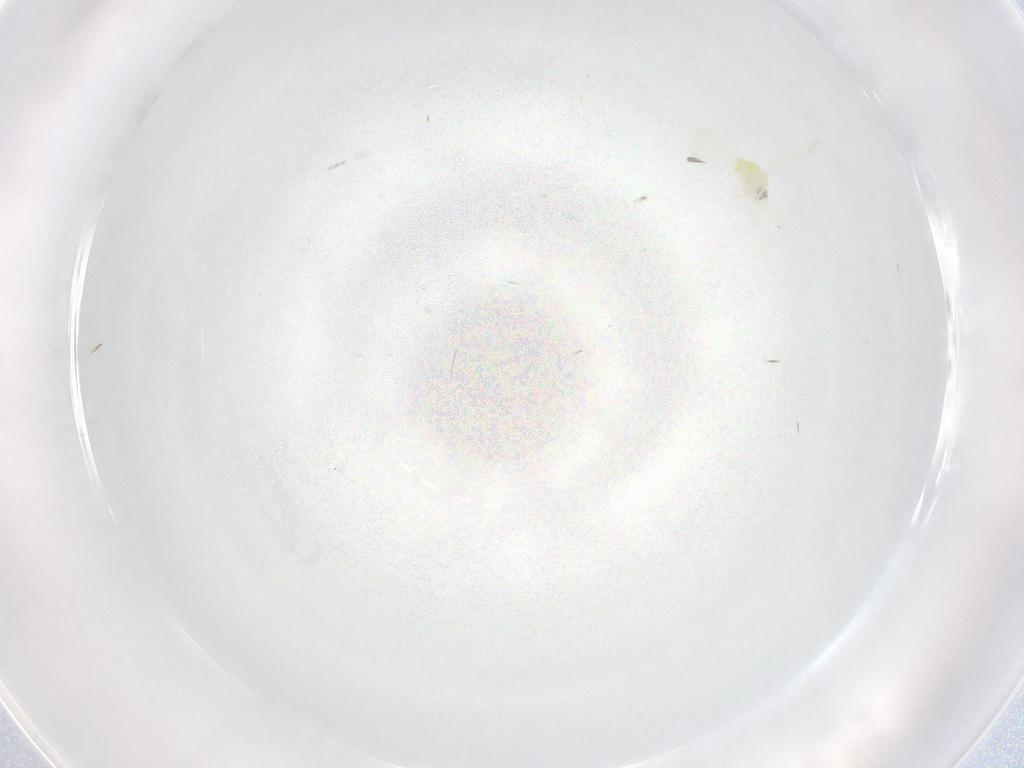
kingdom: Animalia
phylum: Arthropoda
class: Insecta
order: Hemiptera
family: Aleyrodidae
